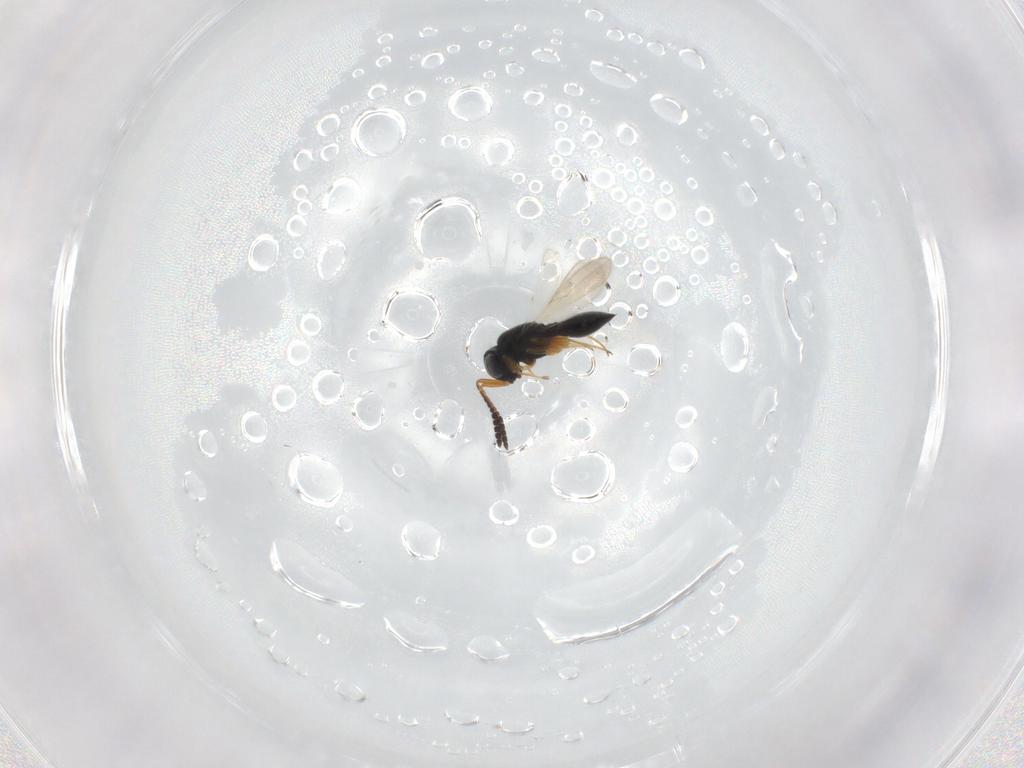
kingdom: Animalia
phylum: Arthropoda
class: Insecta
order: Hymenoptera
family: Scelionidae
